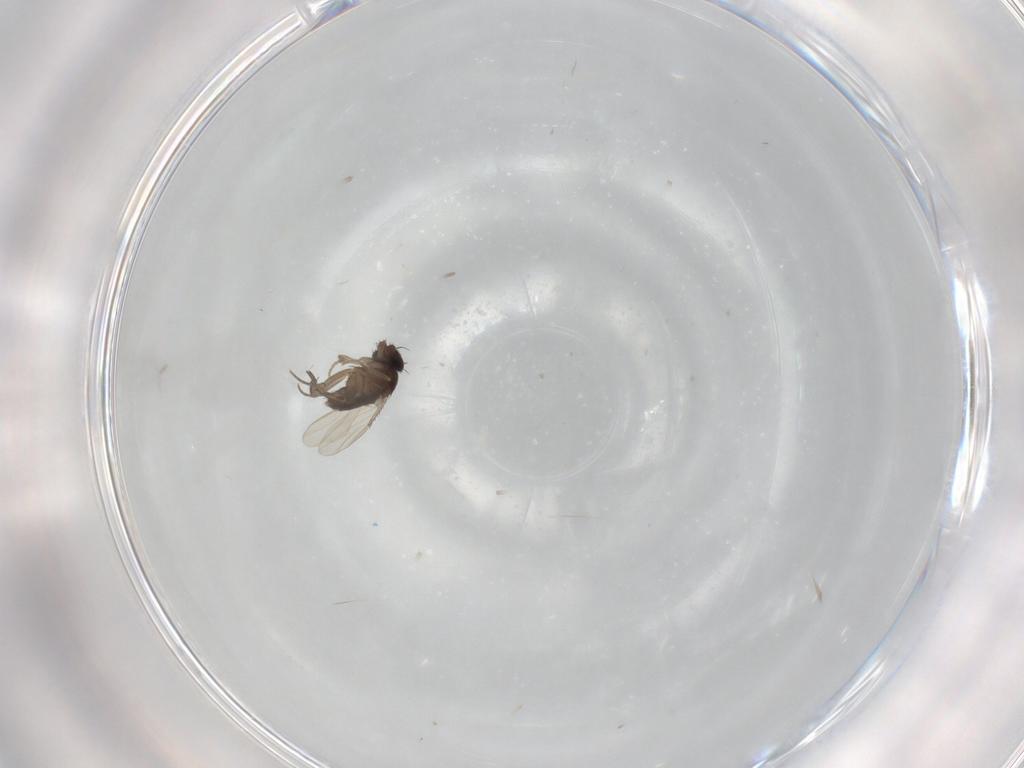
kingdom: Animalia
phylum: Arthropoda
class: Insecta
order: Diptera
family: Phoridae
